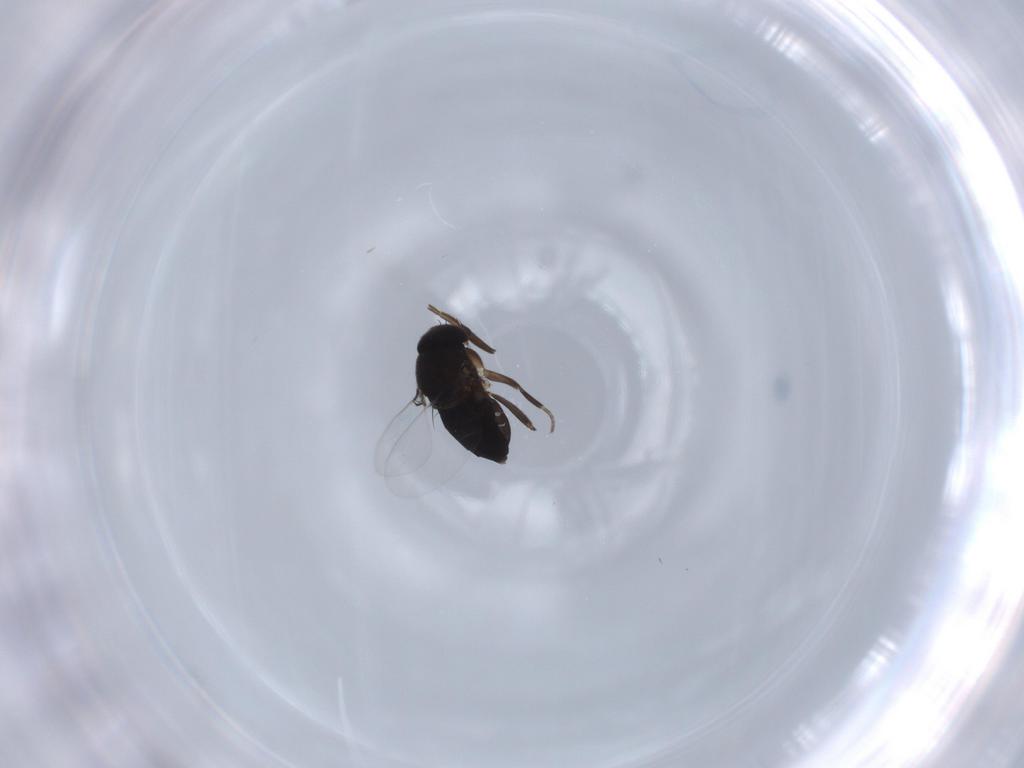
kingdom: Animalia
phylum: Arthropoda
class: Insecta
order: Diptera
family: Phoridae
